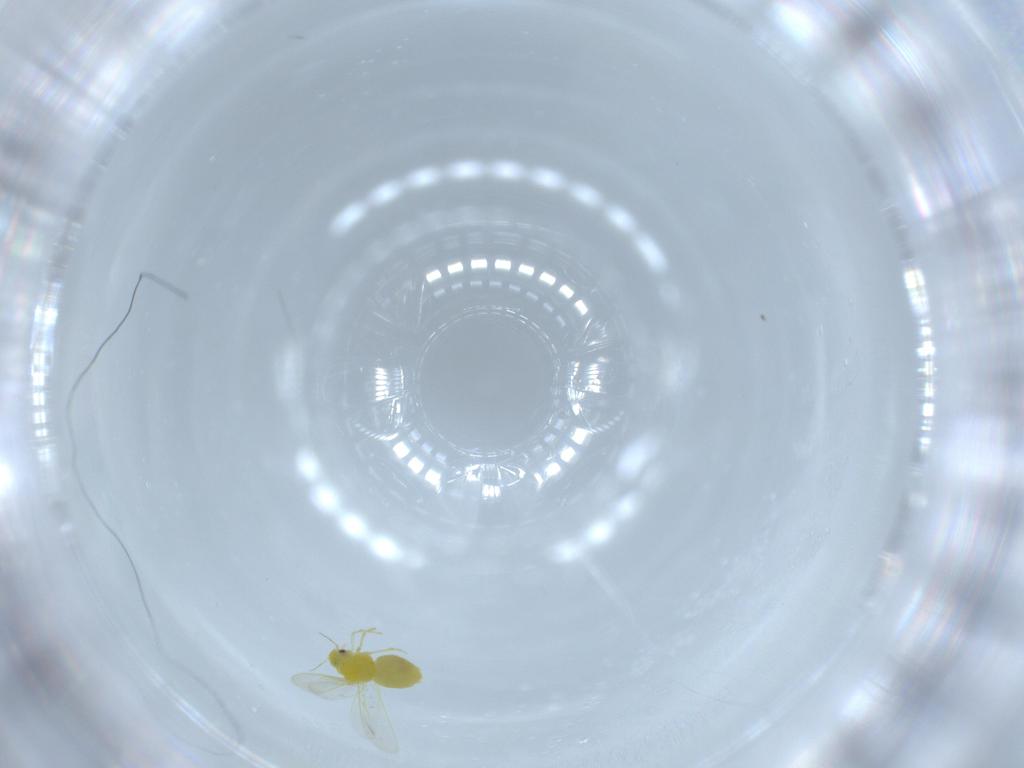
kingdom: Animalia
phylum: Arthropoda
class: Insecta
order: Hemiptera
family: Aleyrodidae
